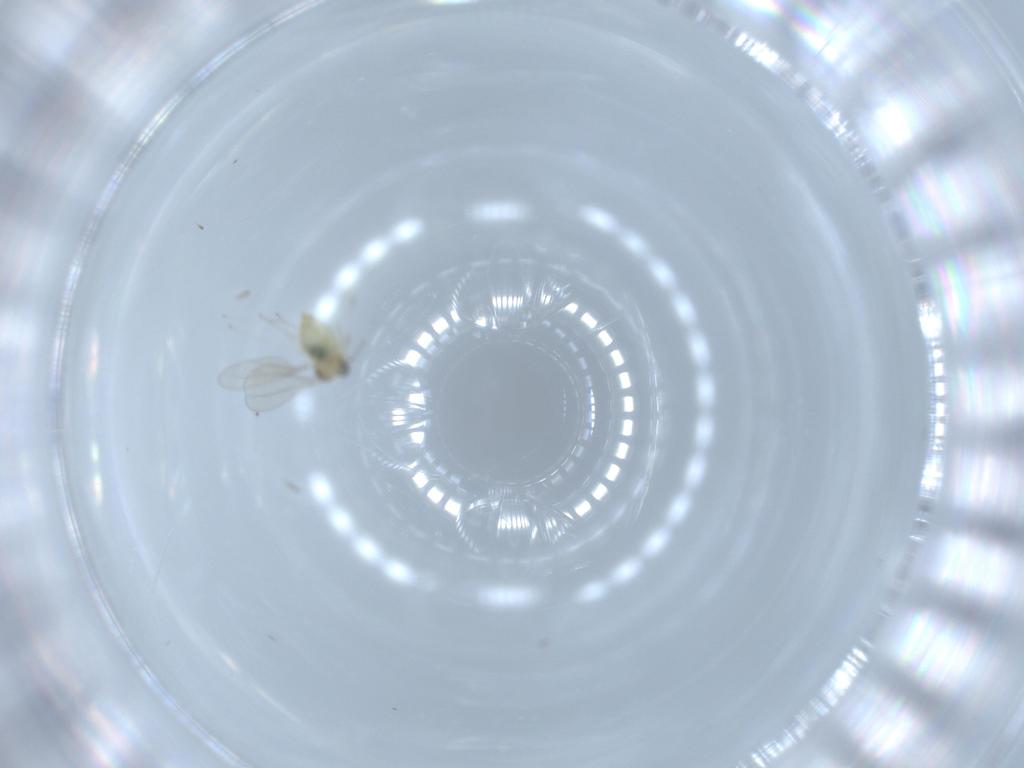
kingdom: Animalia
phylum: Arthropoda
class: Insecta
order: Diptera
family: Cecidomyiidae
